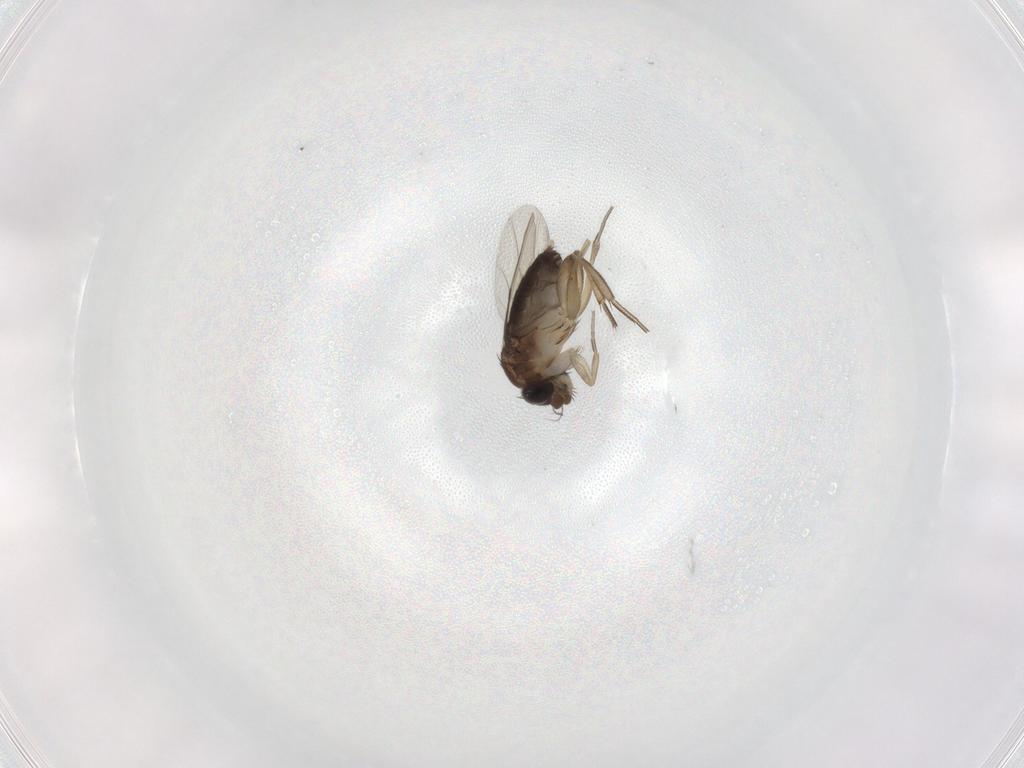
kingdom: Animalia
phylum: Arthropoda
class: Insecta
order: Diptera
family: Phoridae
